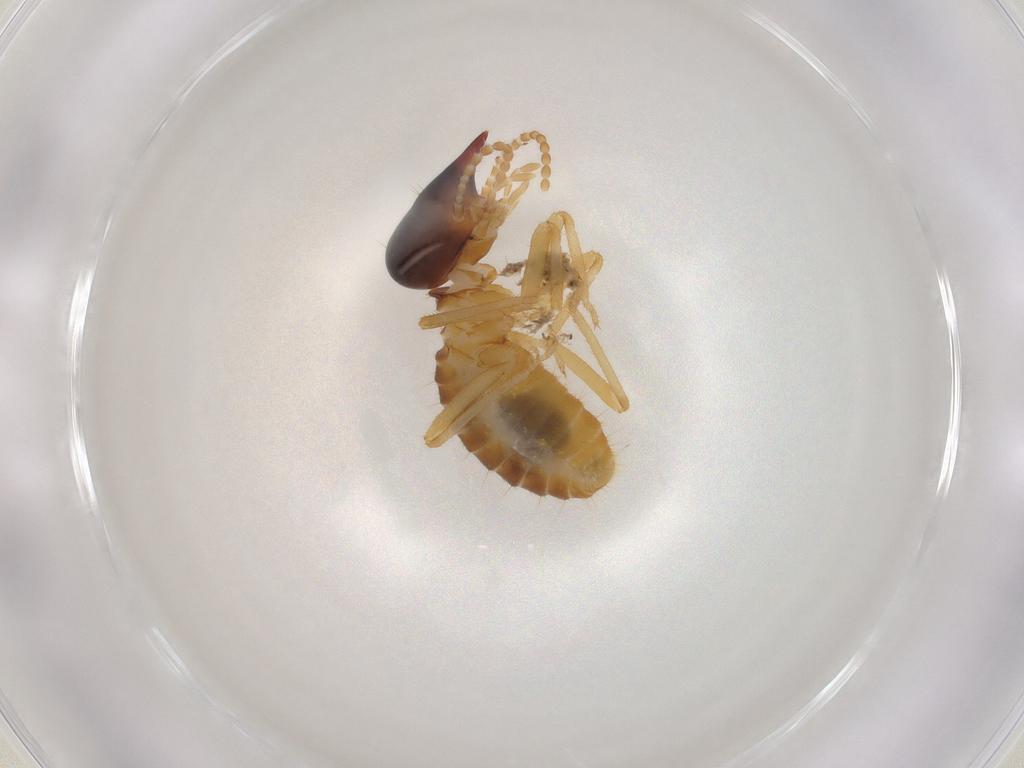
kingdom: Animalia
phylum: Arthropoda
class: Insecta
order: Blattodea
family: Ectobiidae
